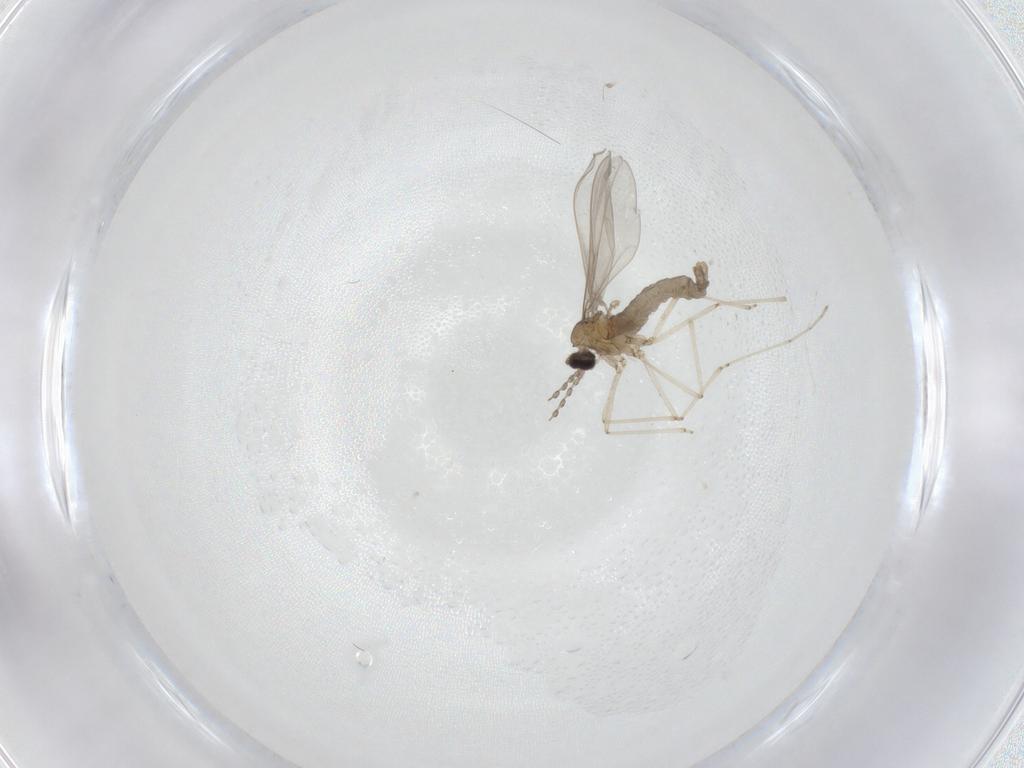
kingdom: Animalia
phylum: Arthropoda
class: Insecta
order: Diptera
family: Cecidomyiidae
